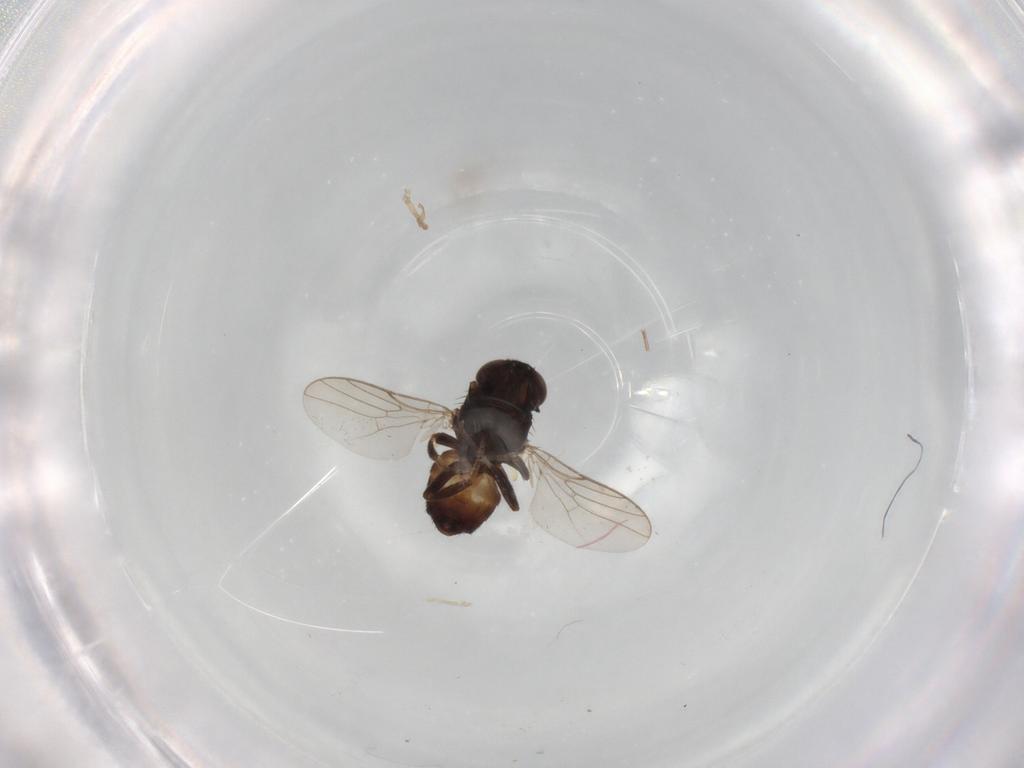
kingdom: Animalia
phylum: Arthropoda
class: Insecta
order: Diptera
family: Chloropidae
